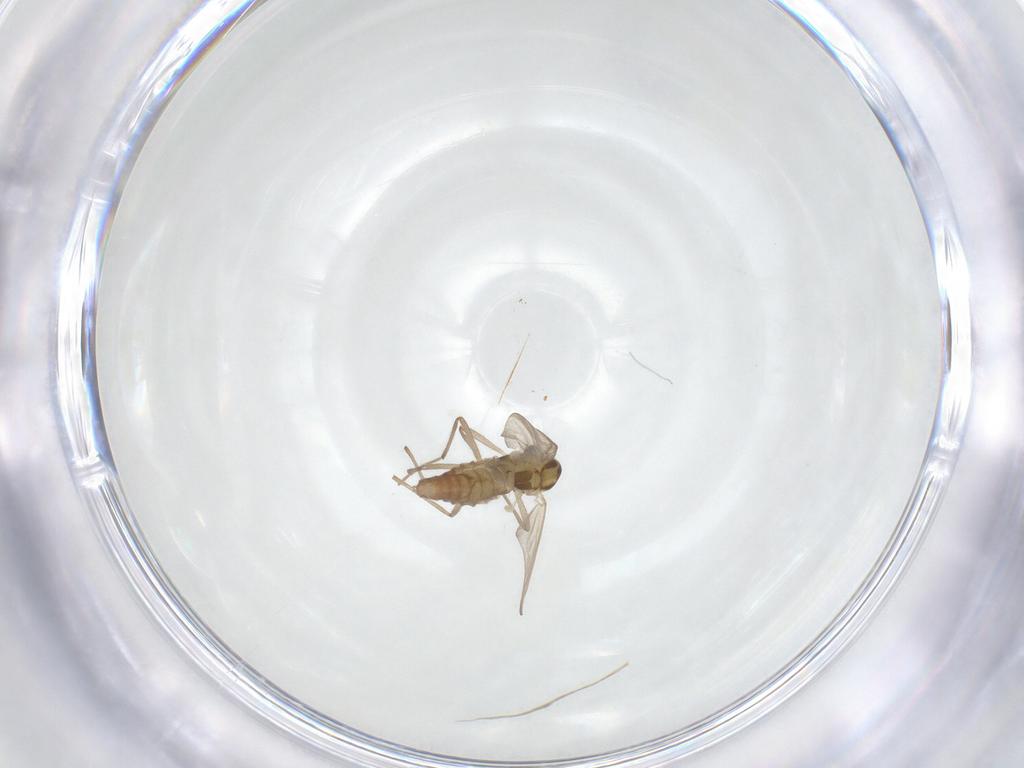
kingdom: Animalia
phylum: Arthropoda
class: Insecta
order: Diptera
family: Chironomidae
